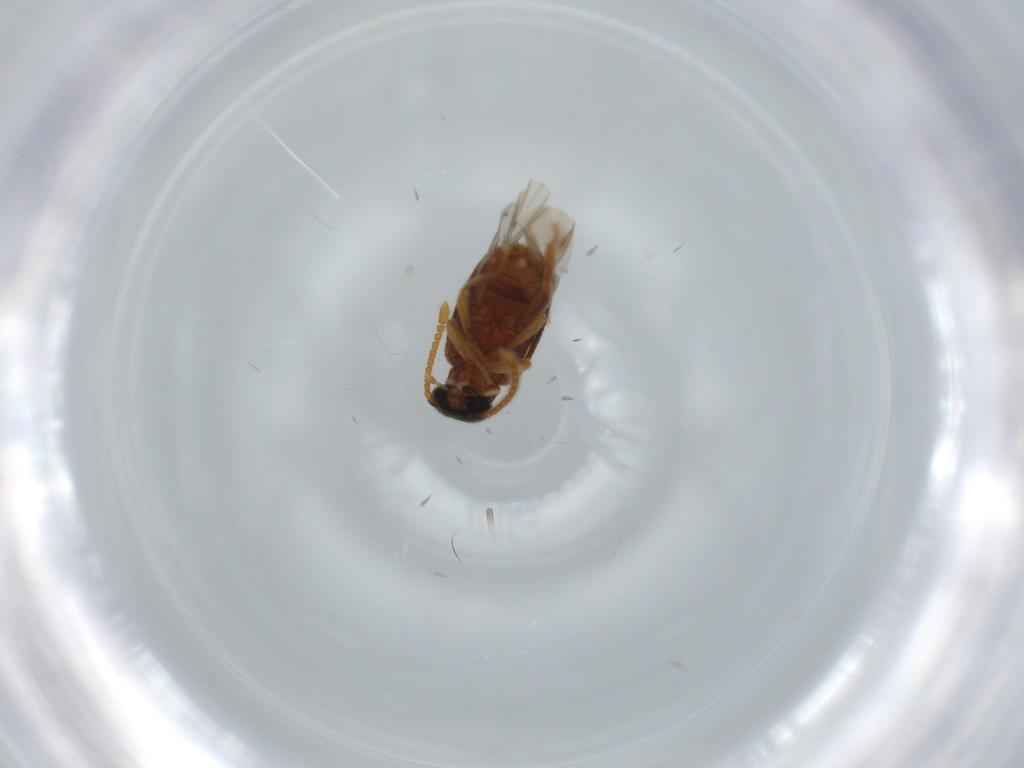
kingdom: Animalia
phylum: Arthropoda
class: Insecta
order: Coleoptera
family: Aderidae
